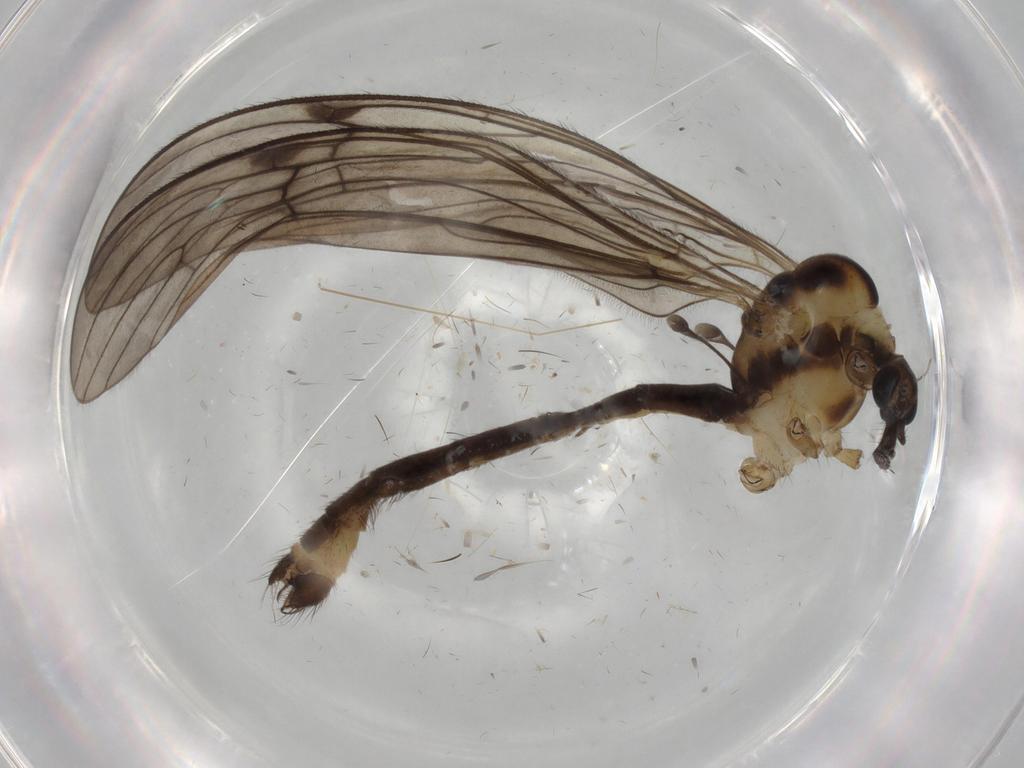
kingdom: Animalia
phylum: Arthropoda
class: Insecta
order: Diptera
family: Limoniidae
